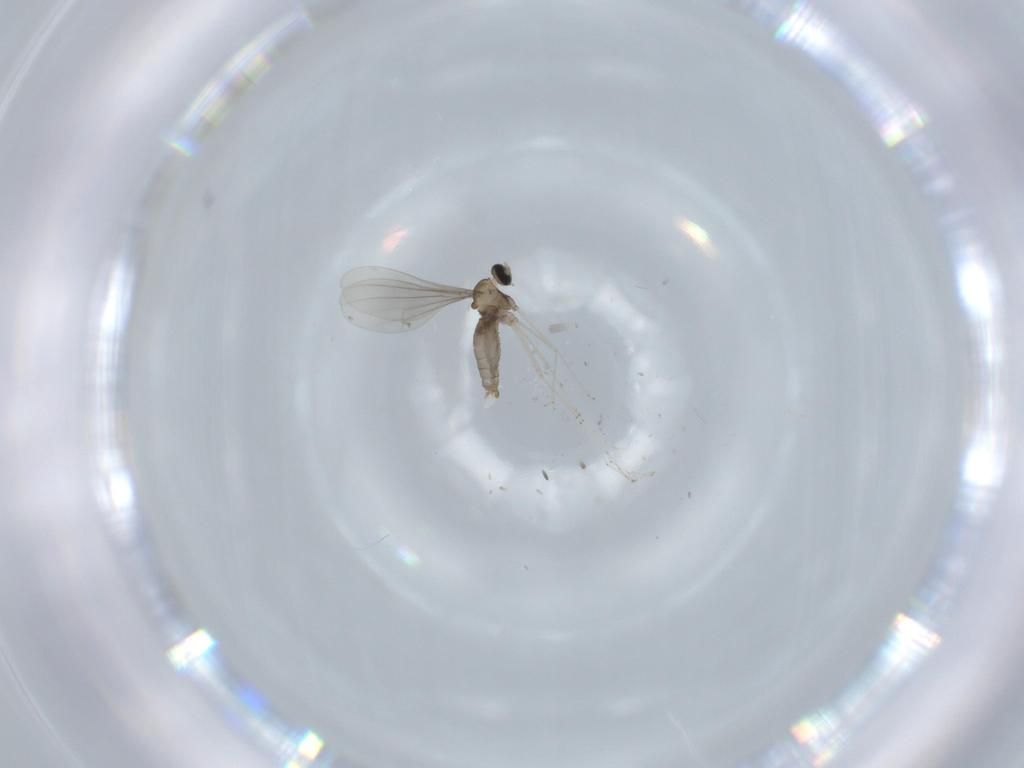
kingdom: Animalia
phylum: Arthropoda
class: Insecta
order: Diptera
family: Cecidomyiidae
